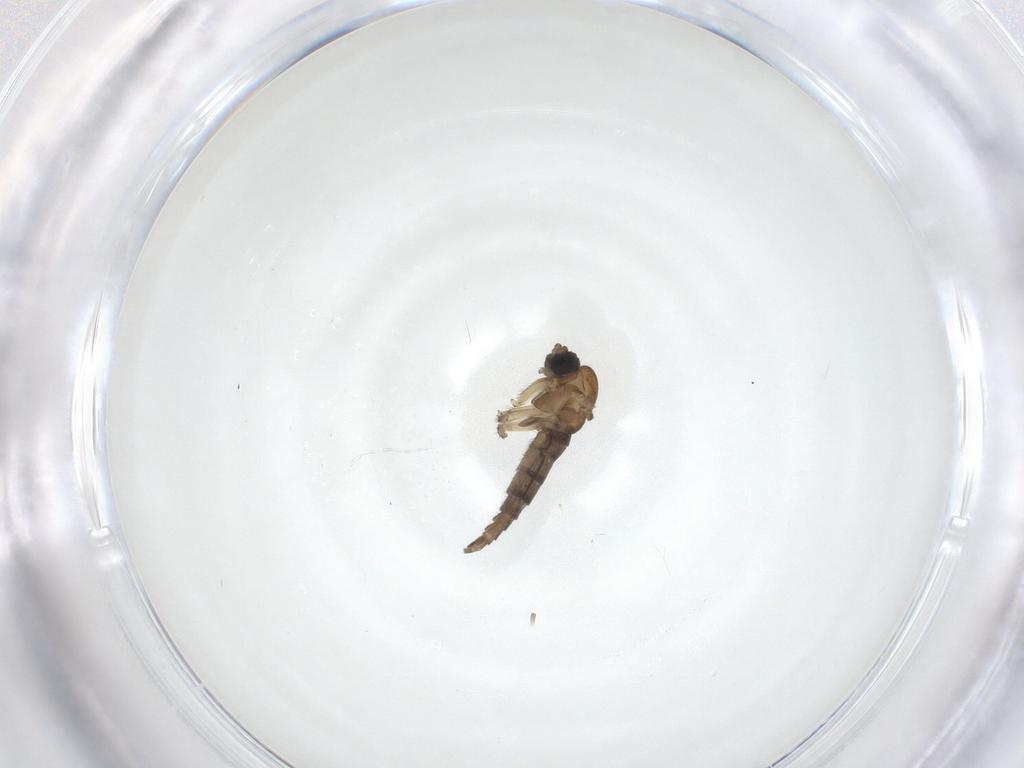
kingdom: Animalia
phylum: Arthropoda
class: Insecta
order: Diptera
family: Sciaridae
